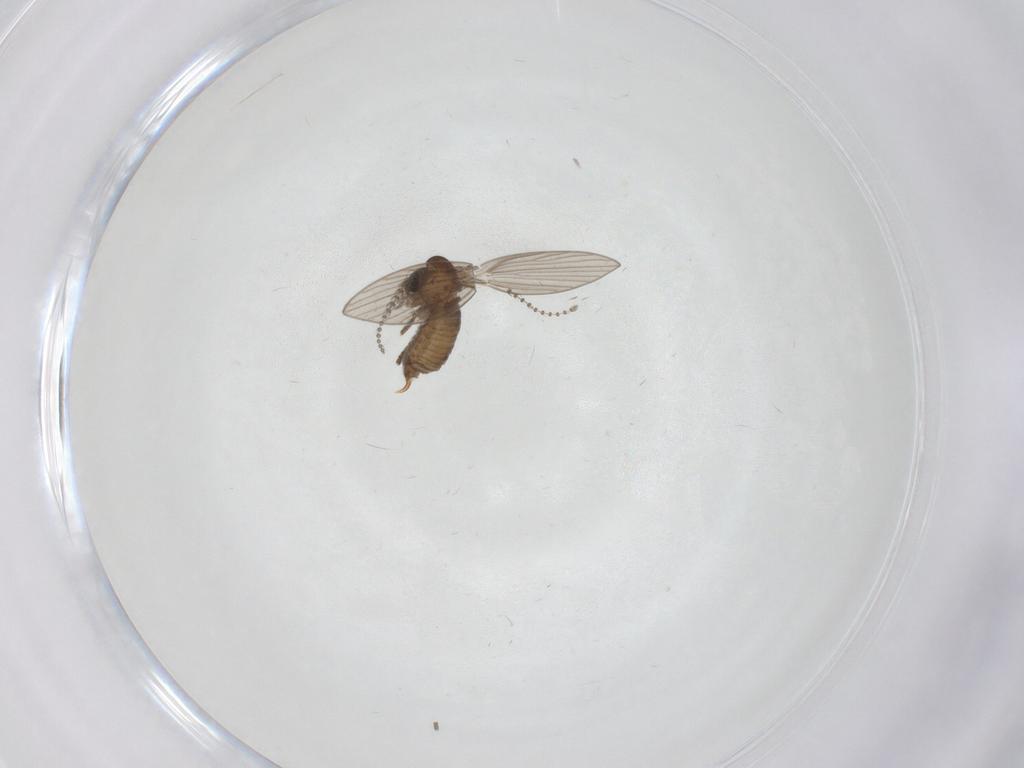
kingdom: Animalia
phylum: Arthropoda
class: Insecta
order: Diptera
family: Psychodidae
